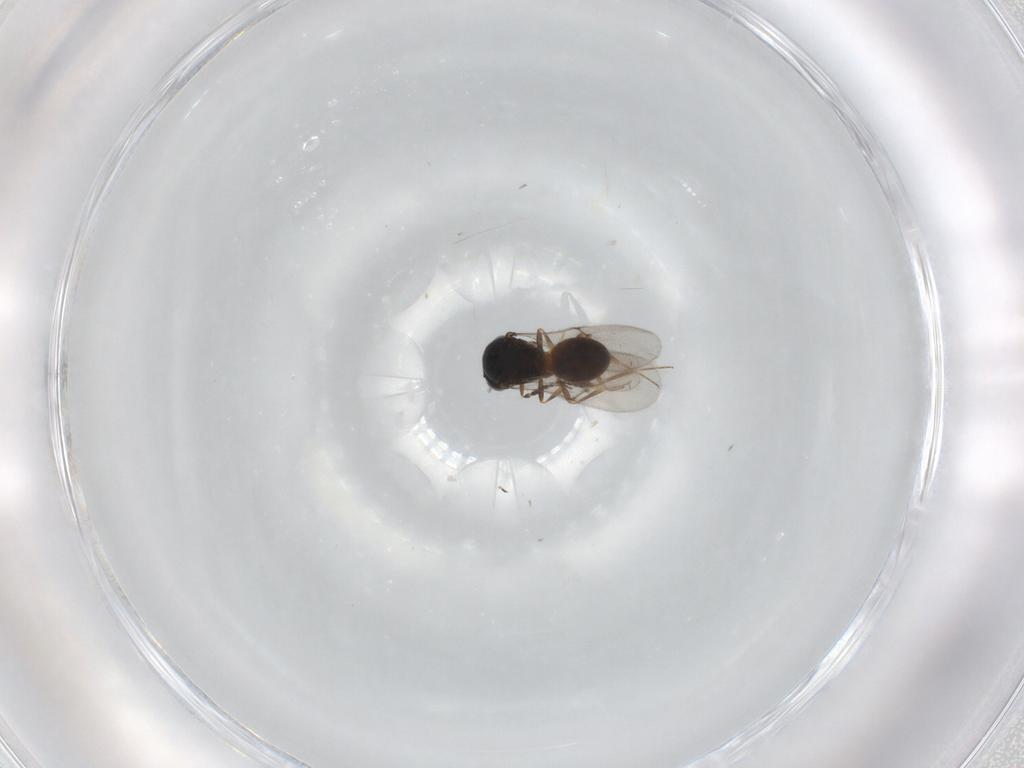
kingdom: Animalia
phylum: Arthropoda
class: Insecta
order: Hymenoptera
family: Scelionidae
